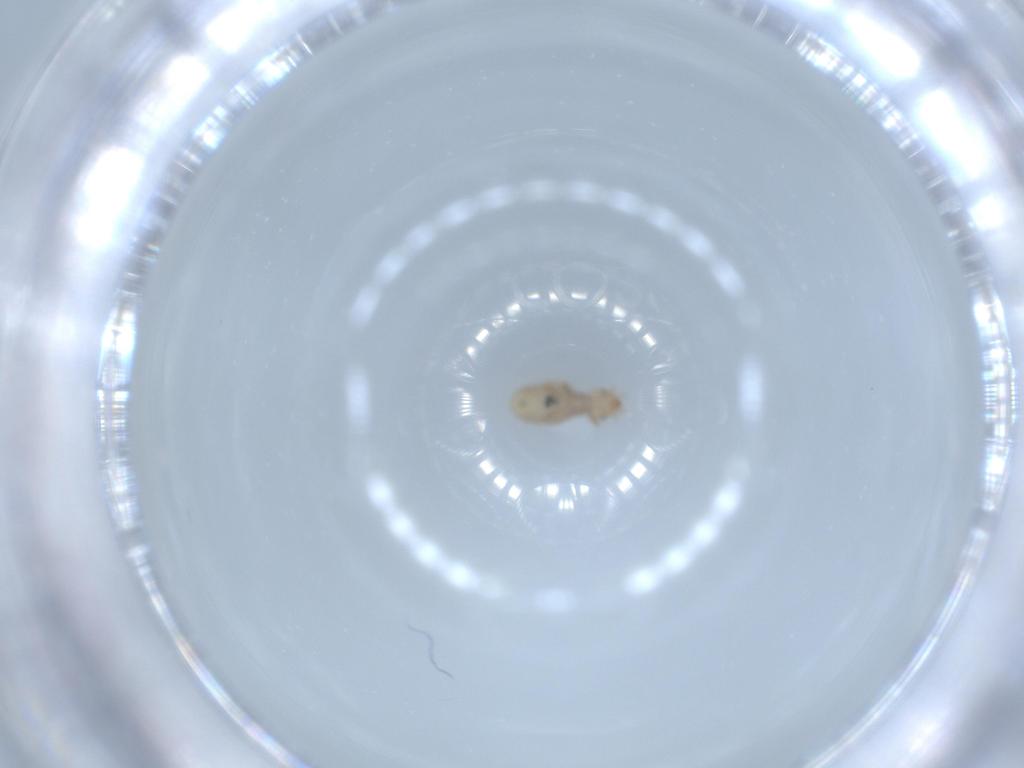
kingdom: Animalia
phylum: Arthropoda
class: Insecta
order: Psocodea
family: Liposcelididae
